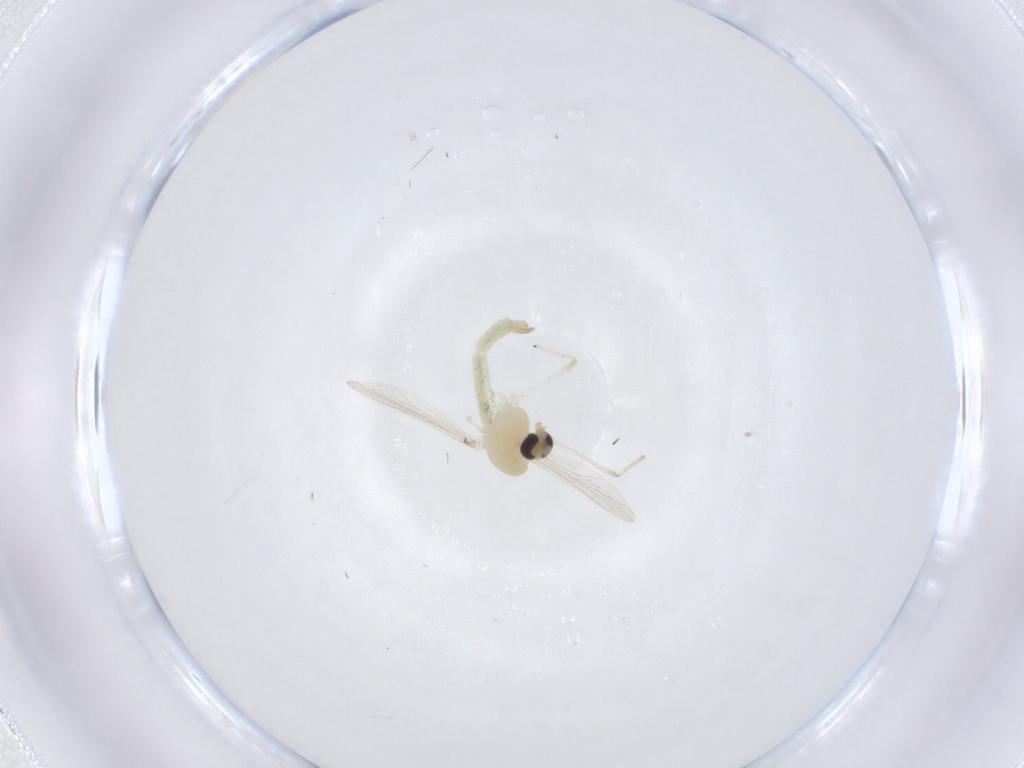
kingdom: Animalia
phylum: Arthropoda
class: Insecta
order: Diptera
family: Chironomidae
